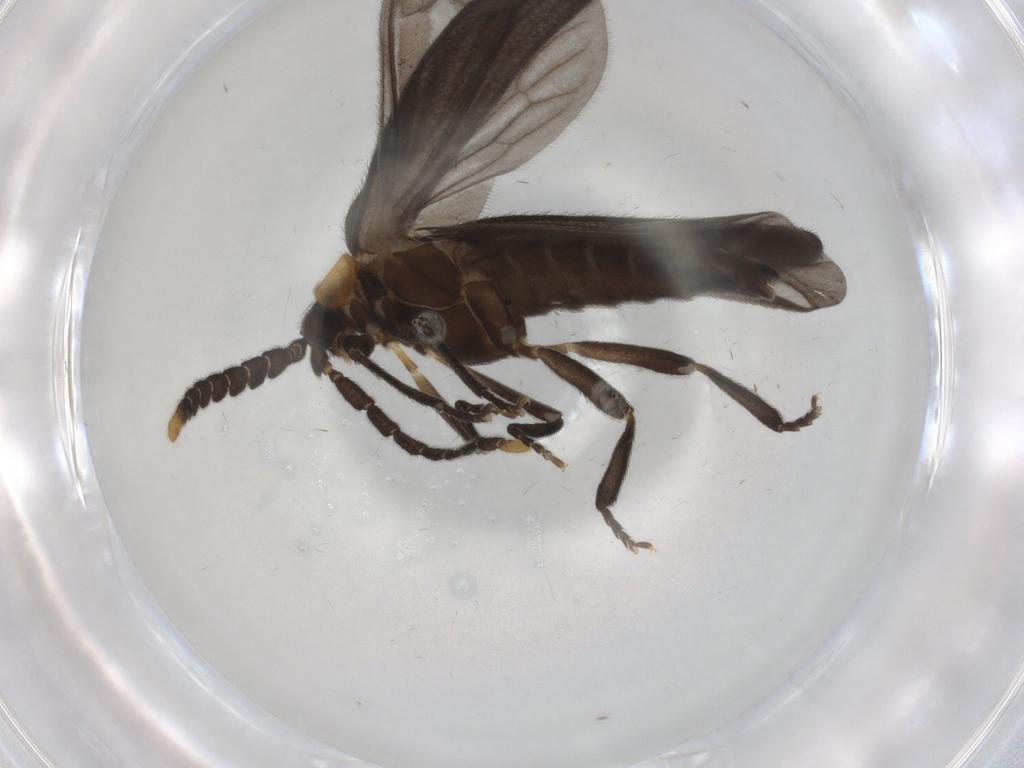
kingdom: Animalia
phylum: Arthropoda
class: Insecta
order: Coleoptera
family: Lycidae
